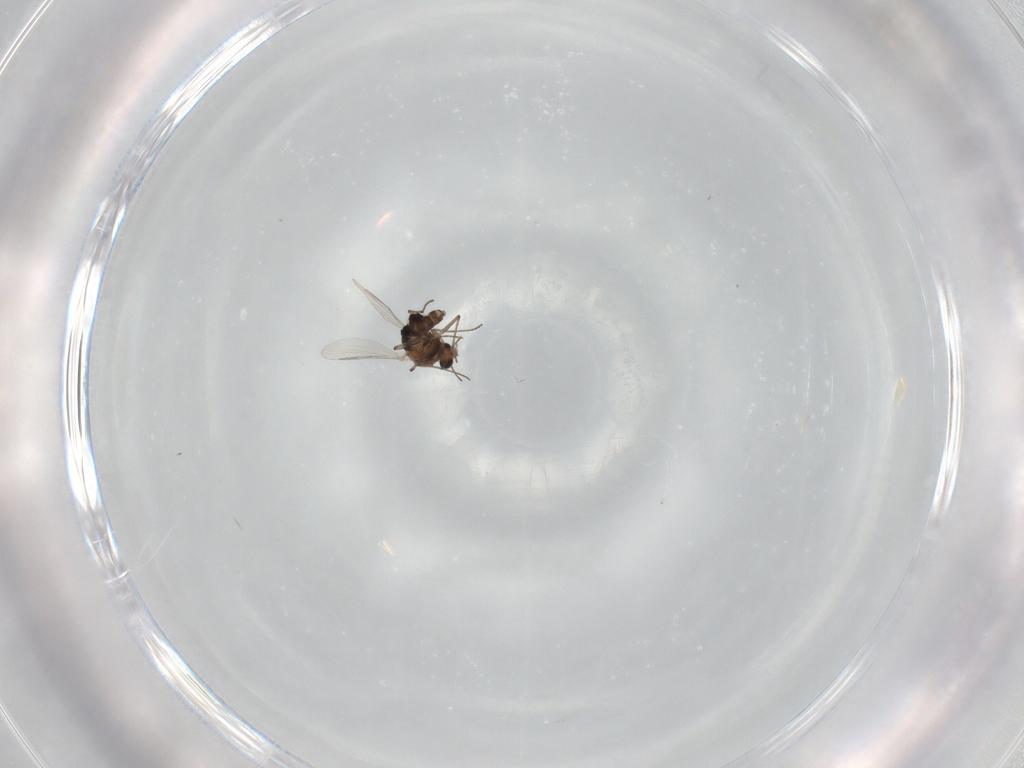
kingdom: Animalia
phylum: Arthropoda
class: Insecta
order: Diptera
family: Chironomidae
